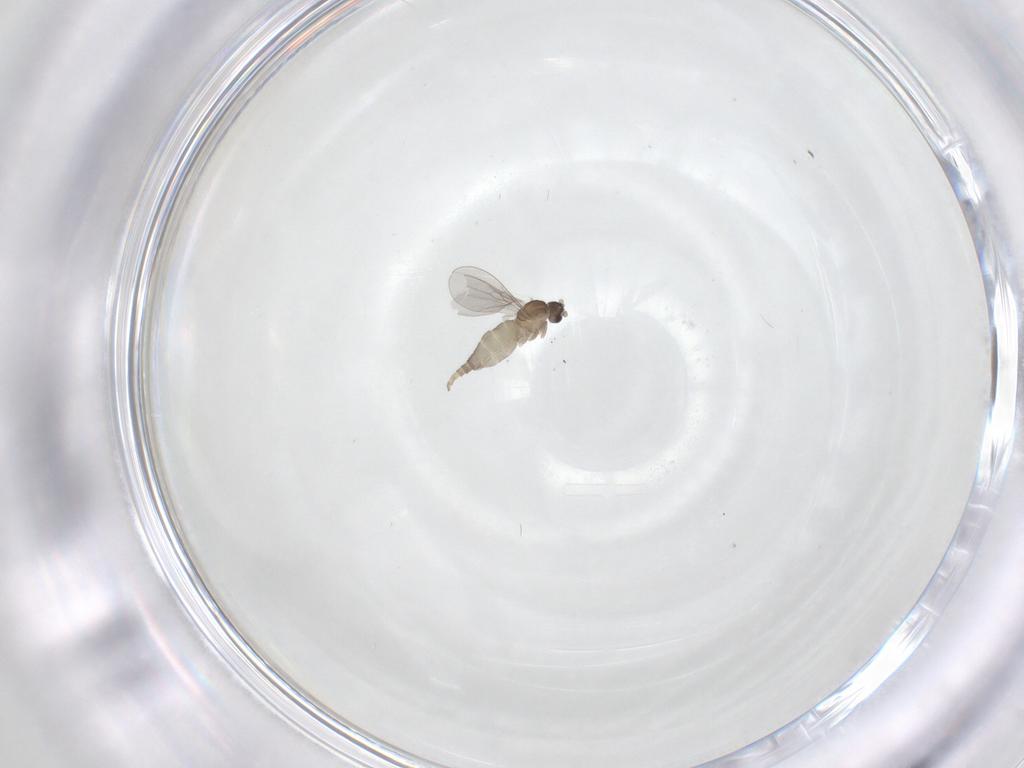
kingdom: Animalia
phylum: Arthropoda
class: Insecta
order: Diptera
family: Cecidomyiidae
